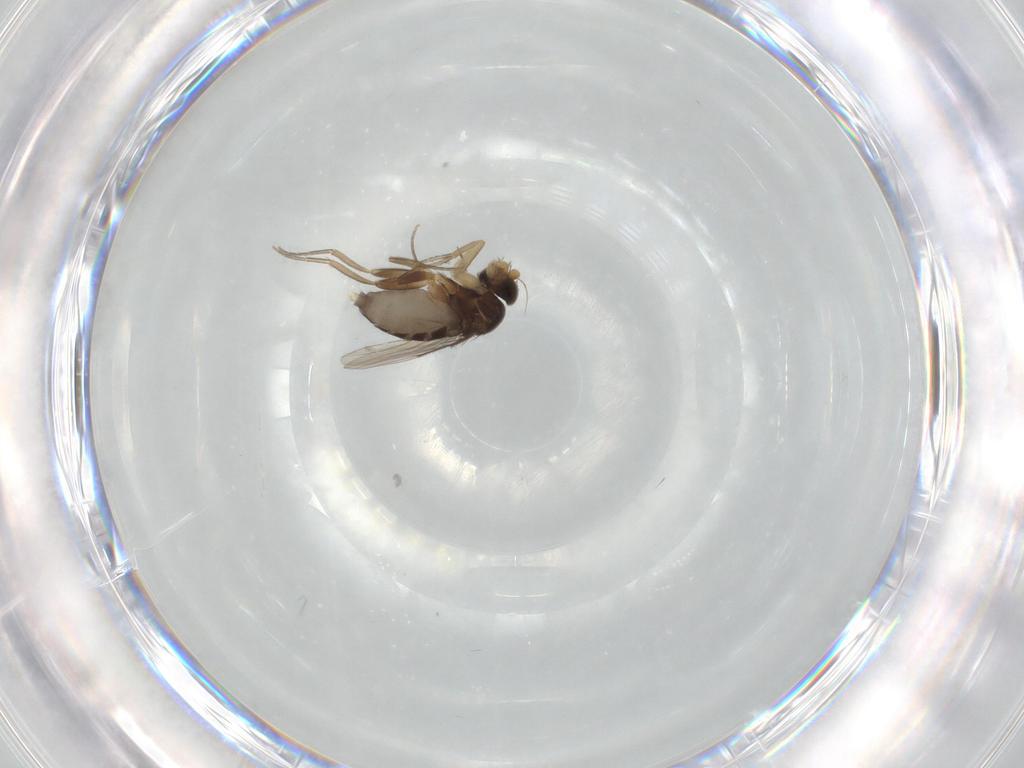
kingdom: Animalia
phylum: Arthropoda
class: Insecta
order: Diptera
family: Phoridae
